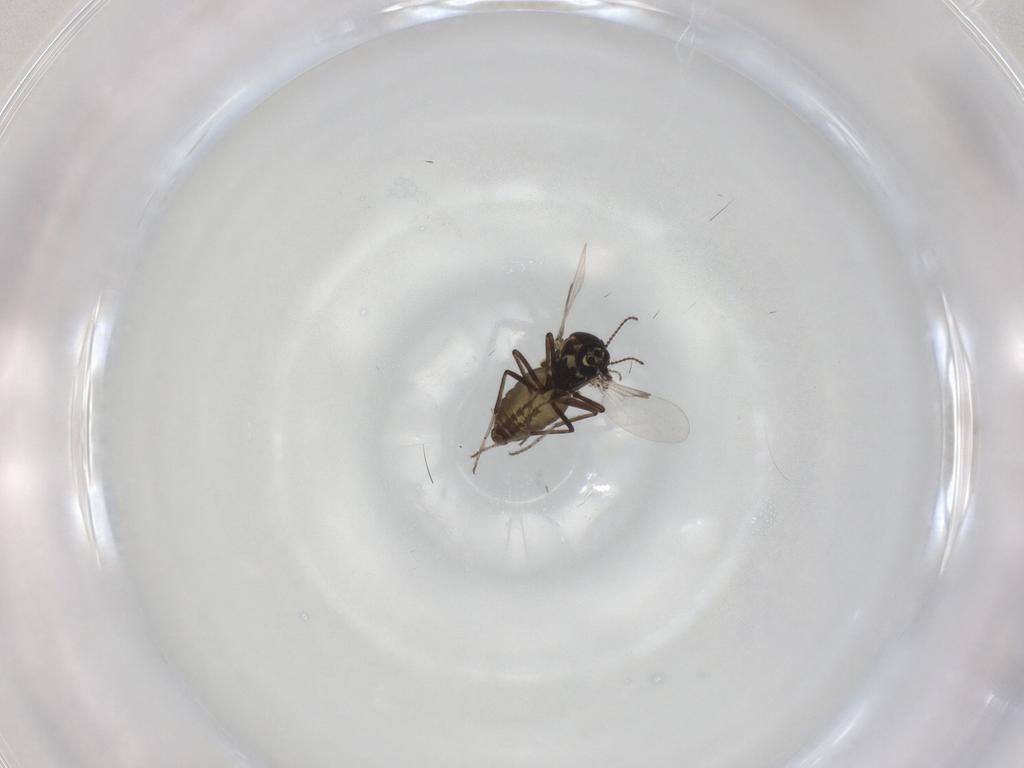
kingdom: Animalia
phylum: Arthropoda
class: Insecta
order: Diptera
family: Ceratopogonidae
